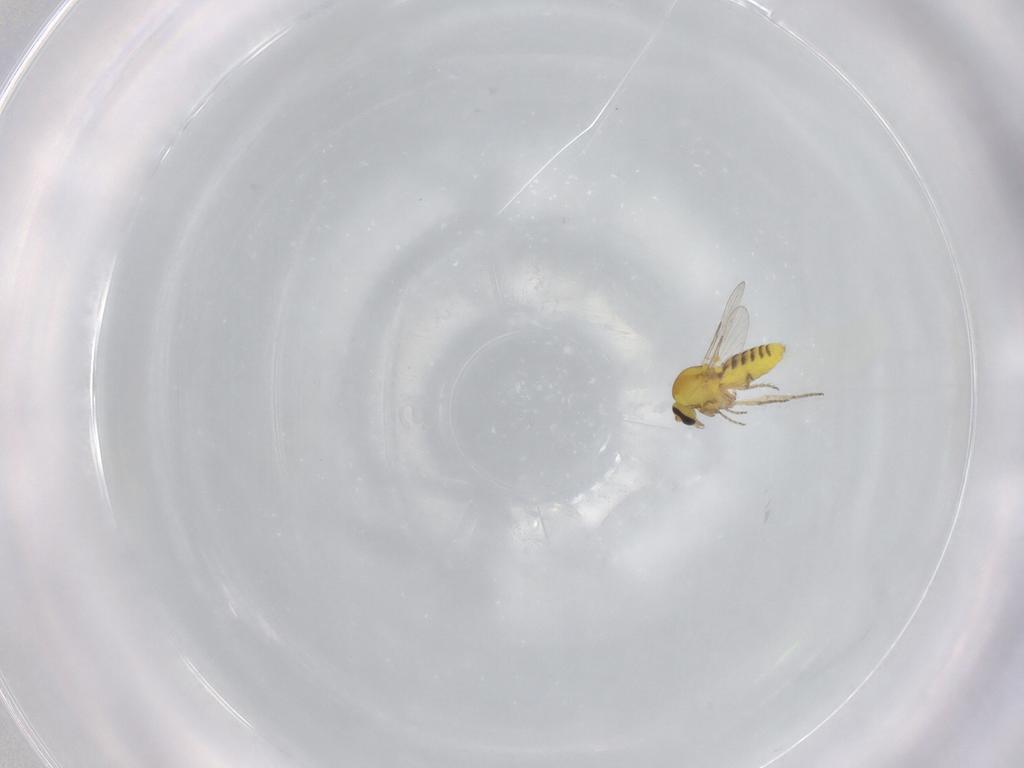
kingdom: Animalia
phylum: Arthropoda
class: Insecta
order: Diptera
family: Ceratopogonidae
